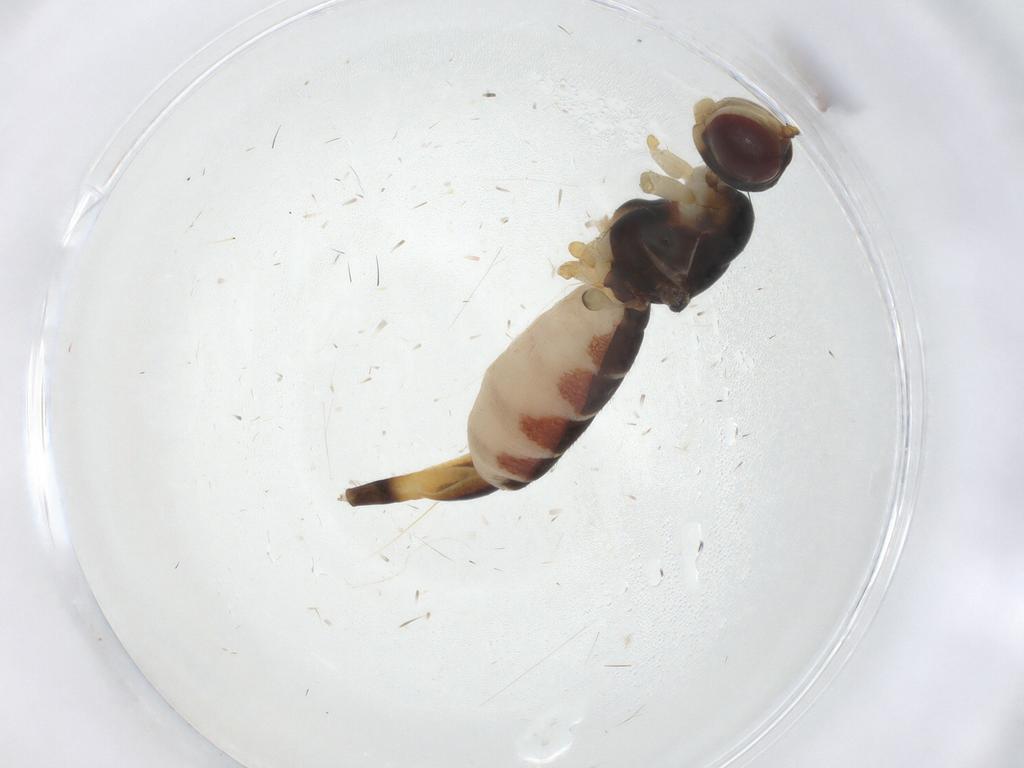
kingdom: Animalia
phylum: Arthropoda
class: Insecta
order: Diptera
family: Micropezidae
